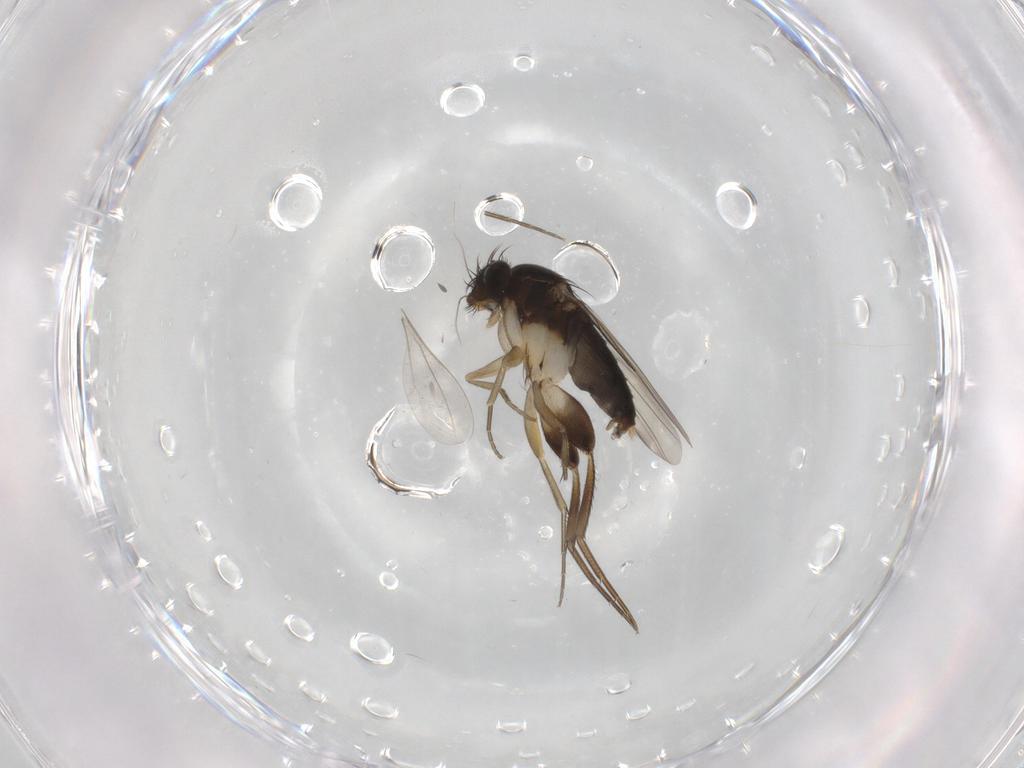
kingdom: Animalia
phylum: Arthropoda
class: Insecta
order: Diptera
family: Phoridae
